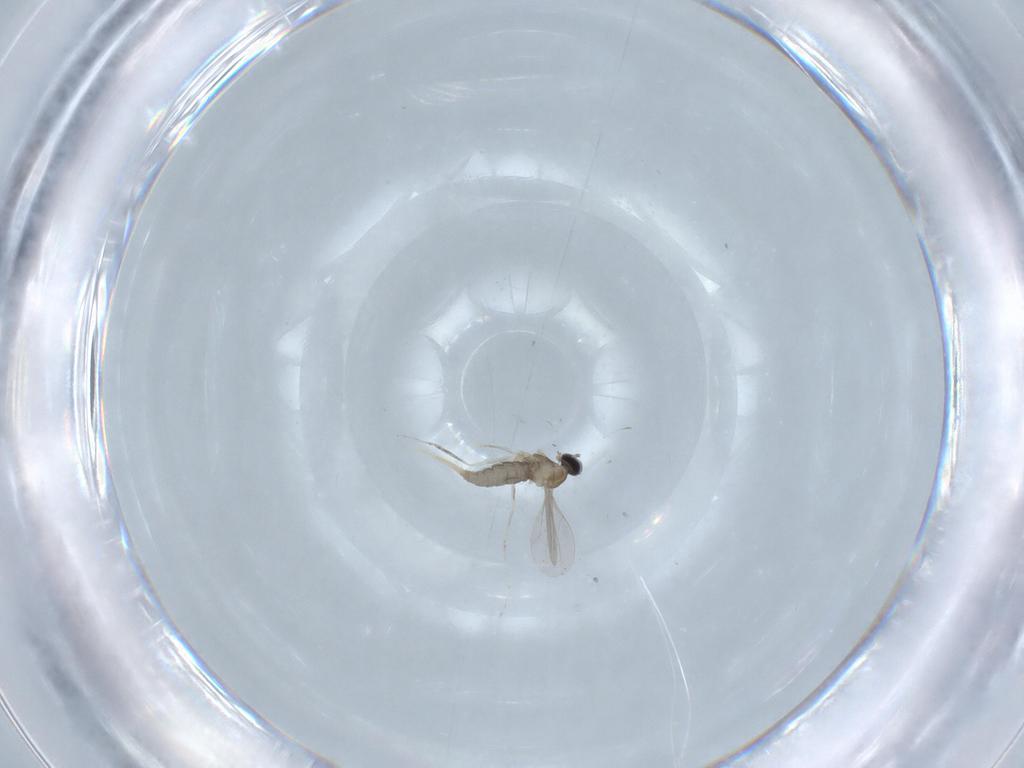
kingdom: Animalia
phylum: Arthropoda
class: Insecta
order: Diptera
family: Cecidomyiidae
